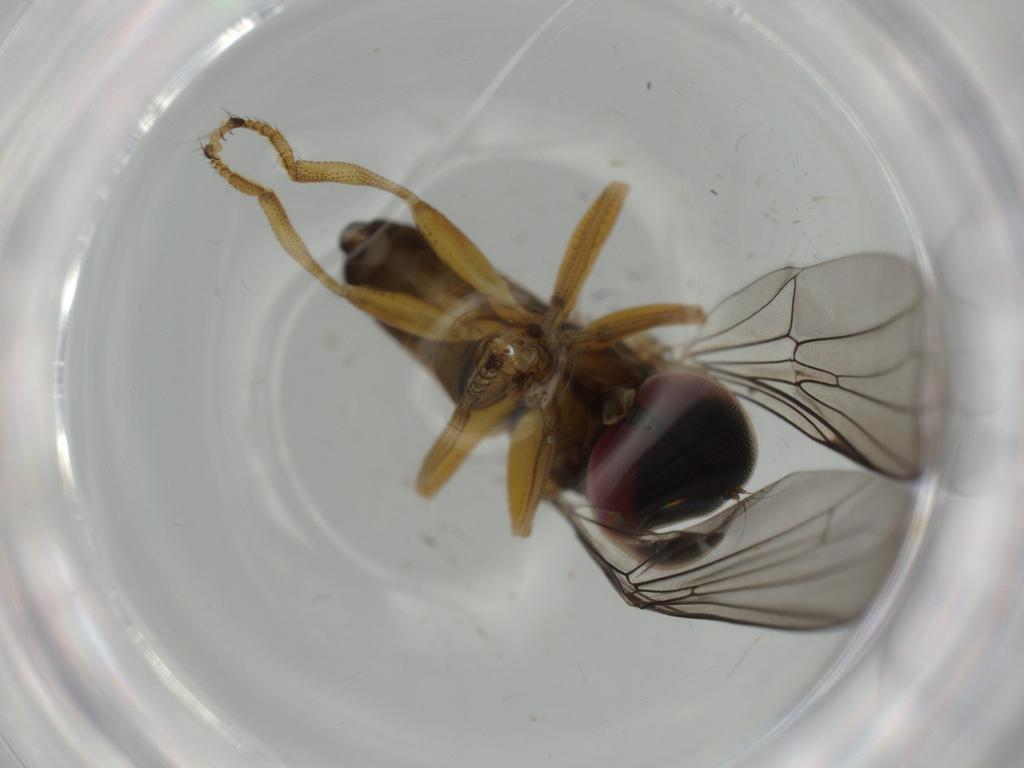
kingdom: Animalia
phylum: Arthropoda
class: Insecta
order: Diptera
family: Pipunculidae
